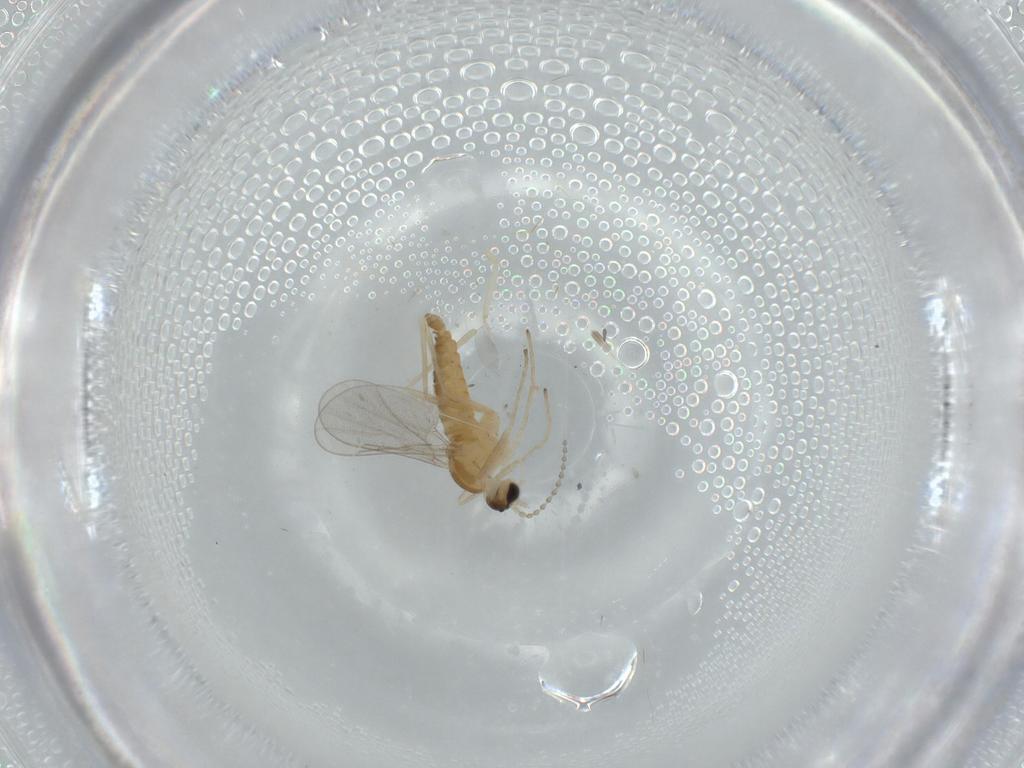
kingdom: Animalia
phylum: Arthropoda
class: Insecta
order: Diptera
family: Cecidomyiidae
